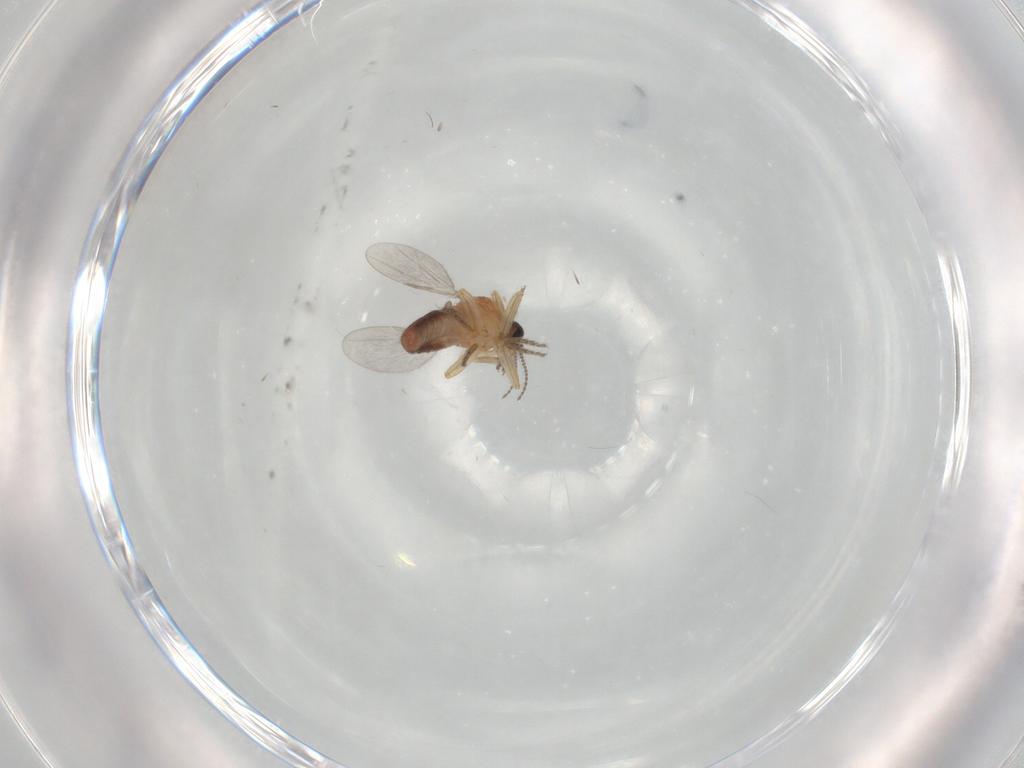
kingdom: Animalia
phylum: Arthropoda
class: Insecta
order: Diptera
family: Ceratopogonidae
